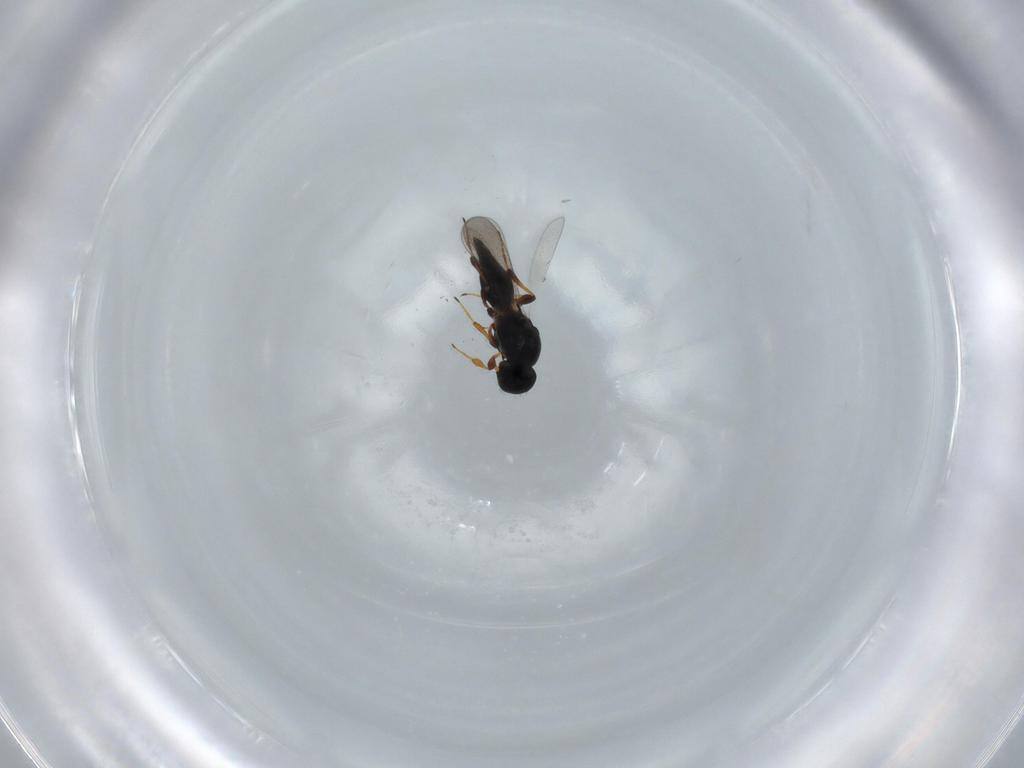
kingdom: Animalia
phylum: Arthropoda
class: Insecta
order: Hymenoptera
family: Platygastridae
